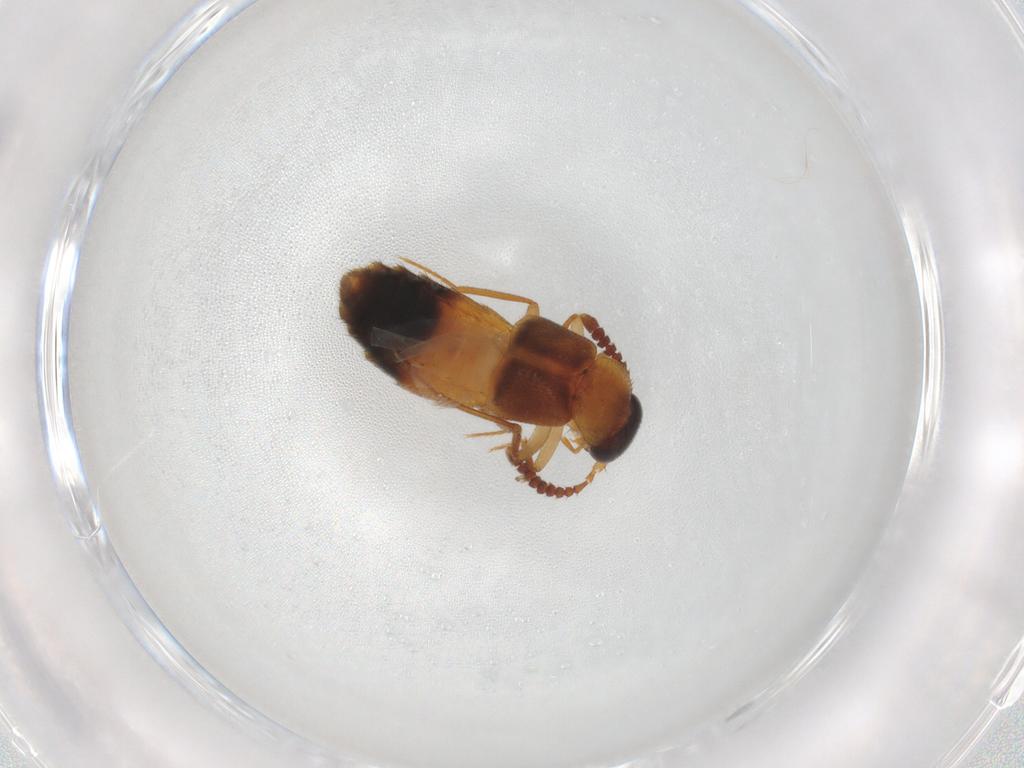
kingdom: Animalia
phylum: Arthropoda
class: Insecta
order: Coleoptera
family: Staphylinidae
